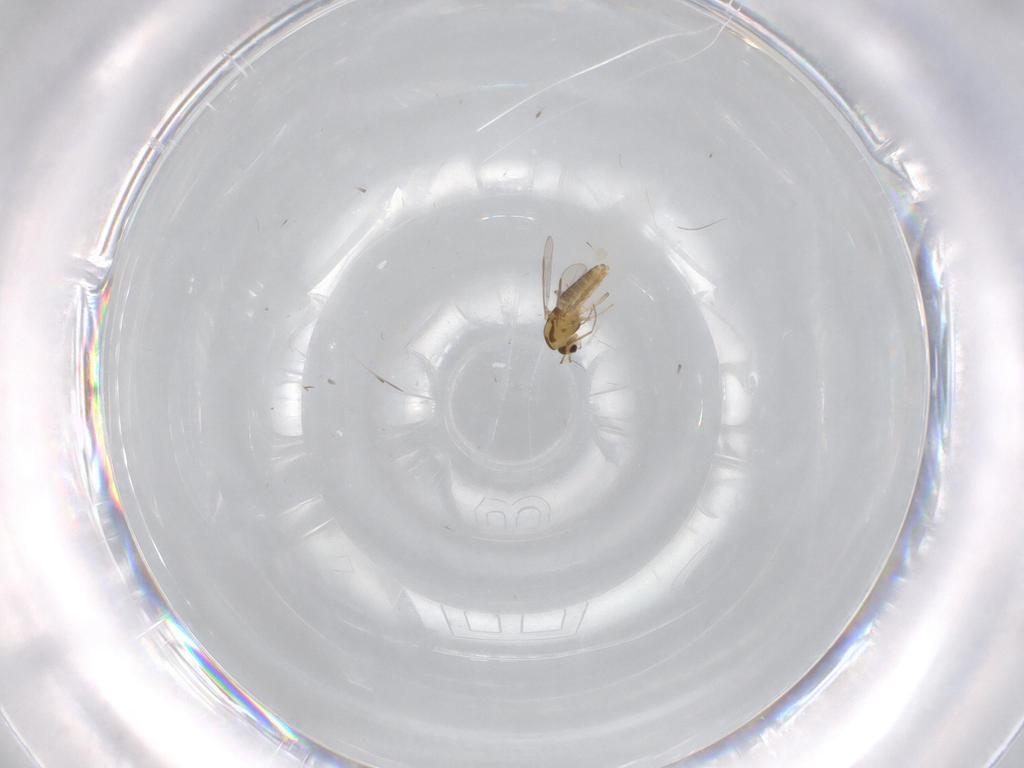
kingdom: Animalia
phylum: Arthropoda
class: Insecta
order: Diptera
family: Chironomidae
